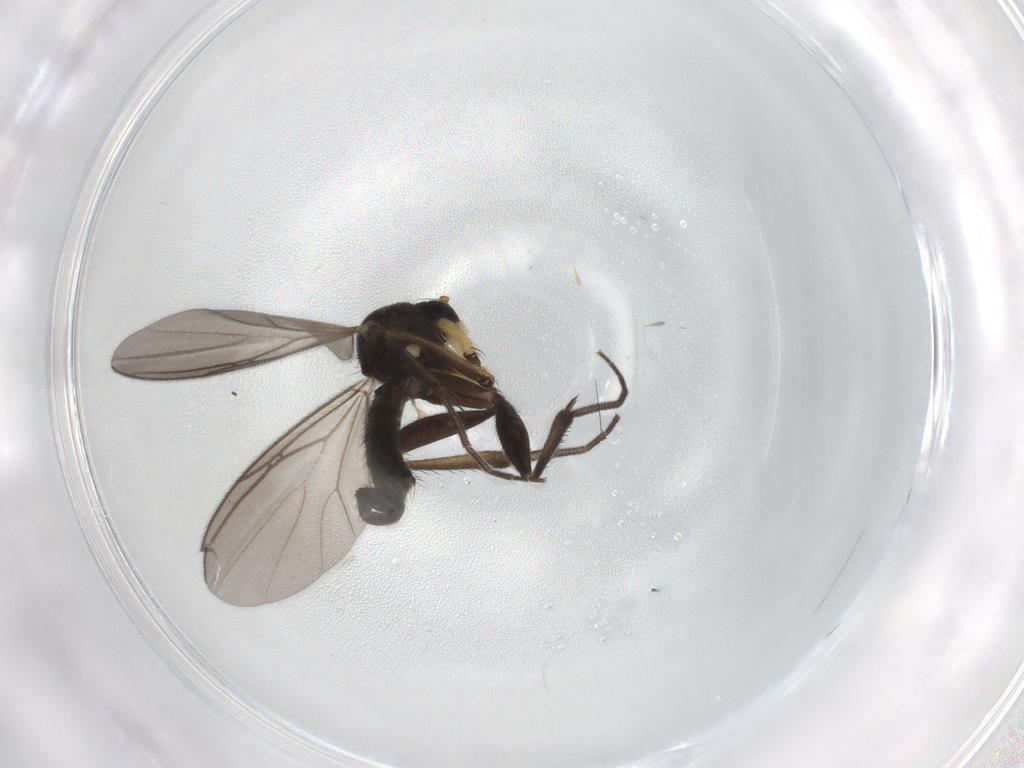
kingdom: Animalia
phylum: Arthropoda
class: Insecta
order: Diptera
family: Mycetophilidae
